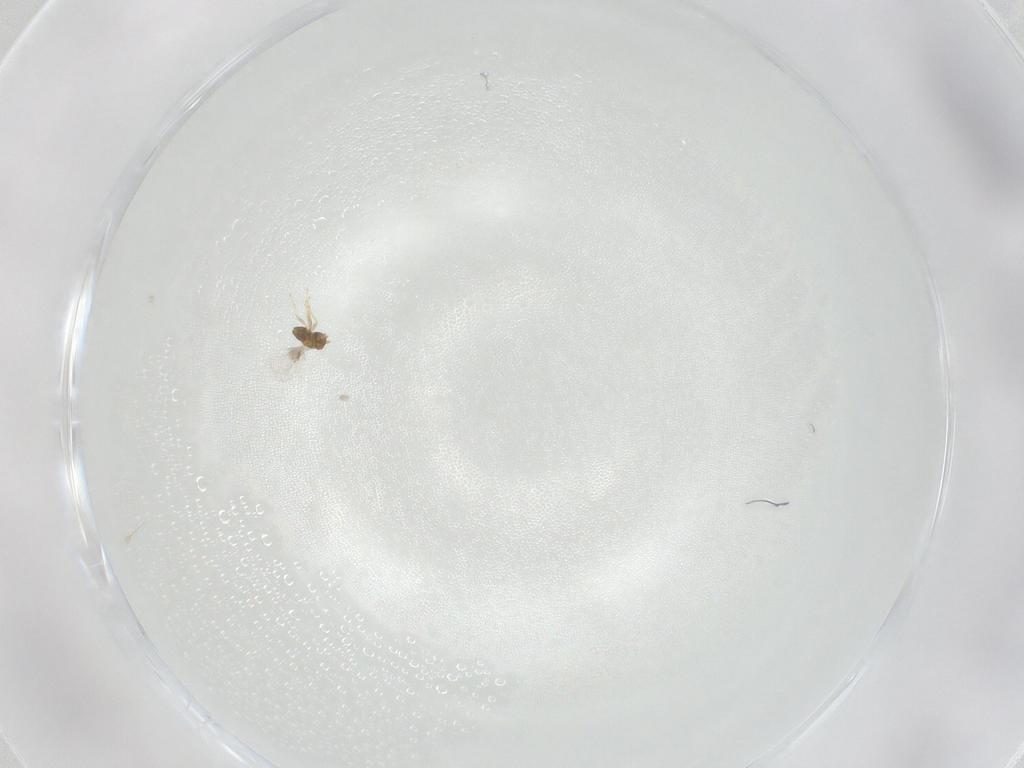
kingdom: Animalia
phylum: Arthropoda
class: Insecta
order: Hymenoptera
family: Trichogrammatidae
